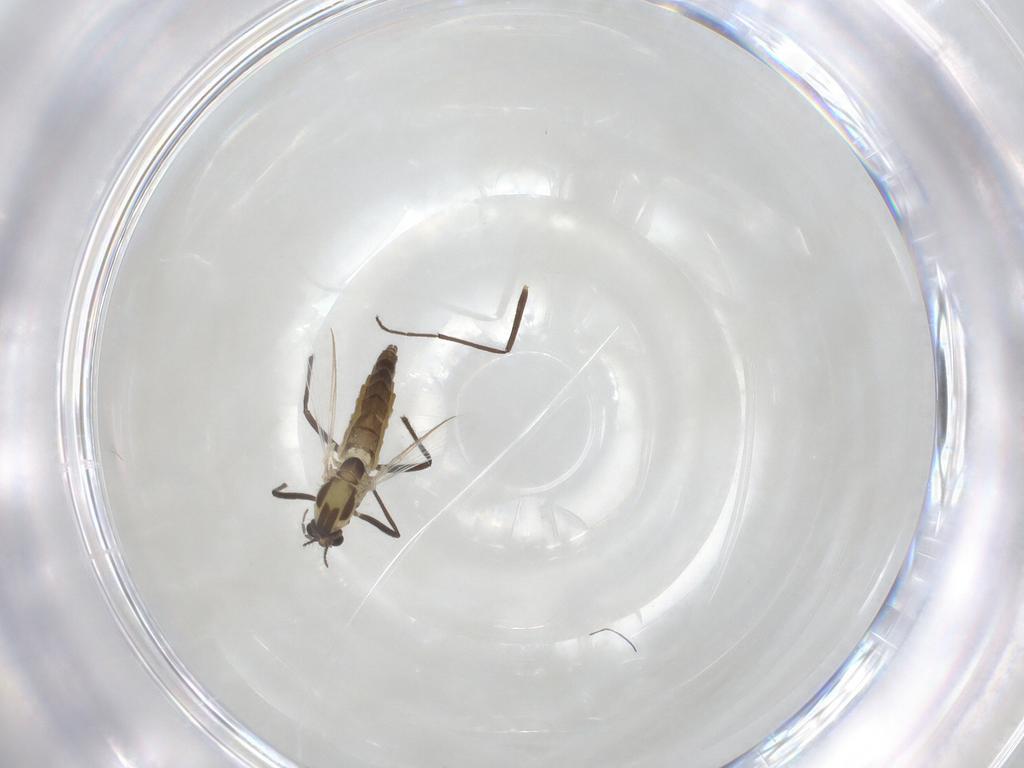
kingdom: Animalia
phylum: Arthropoda
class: Insecta
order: Diptera
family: Chironomidae
